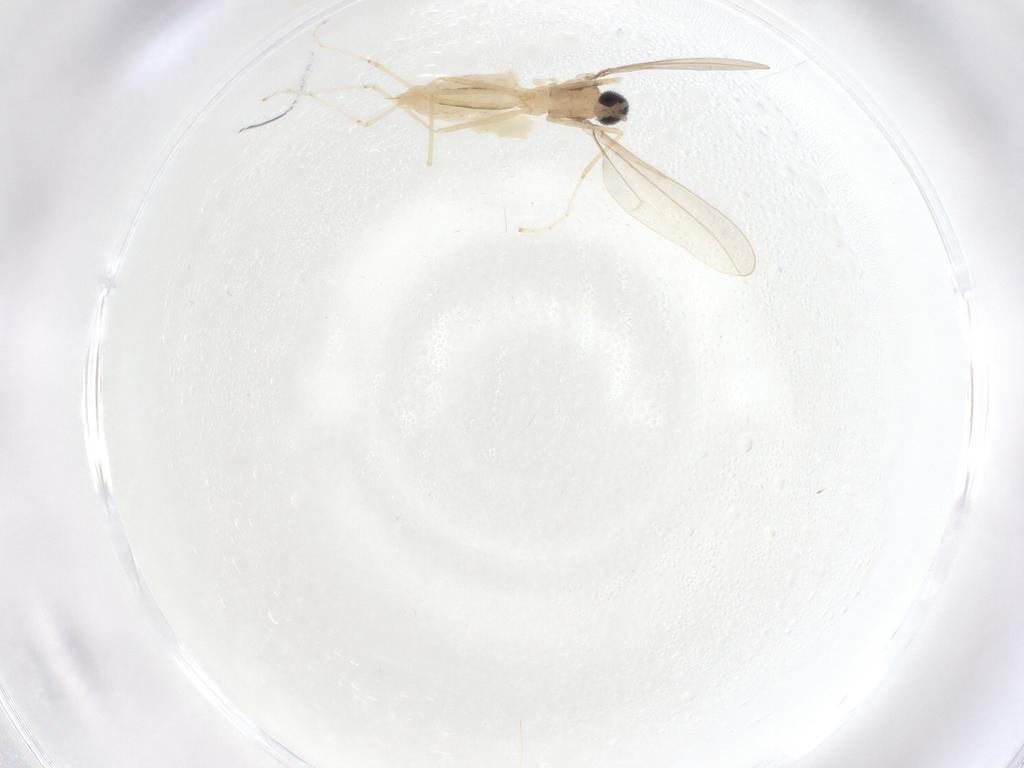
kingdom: Animalia
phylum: Arthropoda
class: Insecta
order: Diptera
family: Cecidomyiidae
